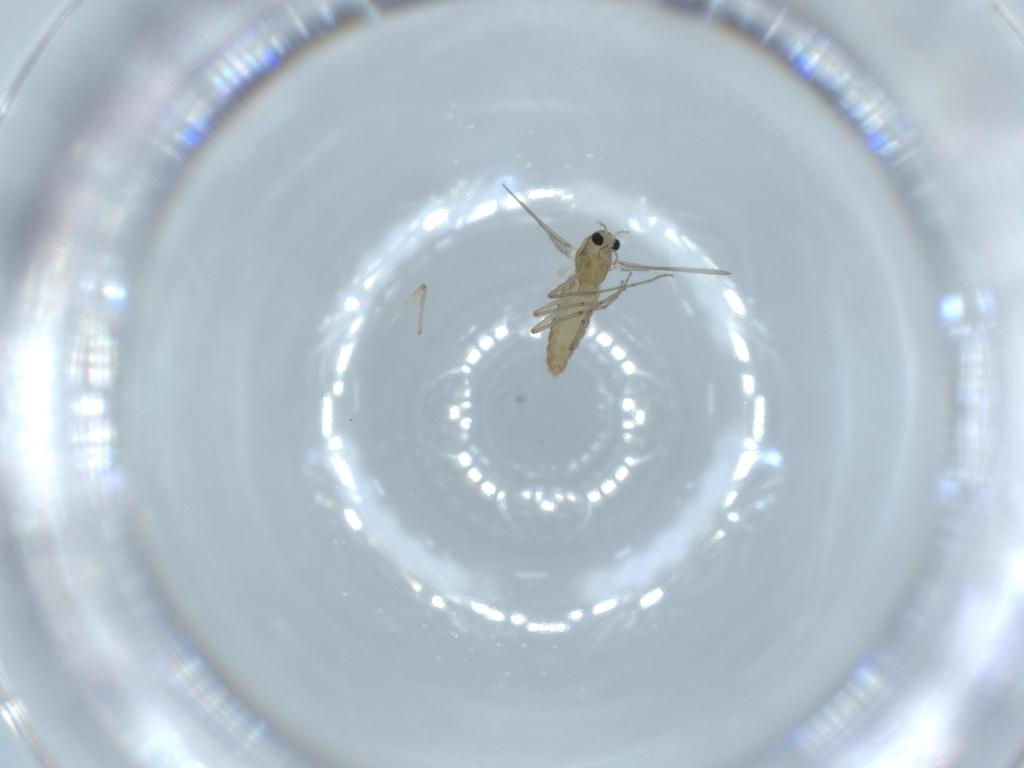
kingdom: Animalia
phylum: Arthropoda
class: Insecta
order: Diptera
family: Chironomidae
